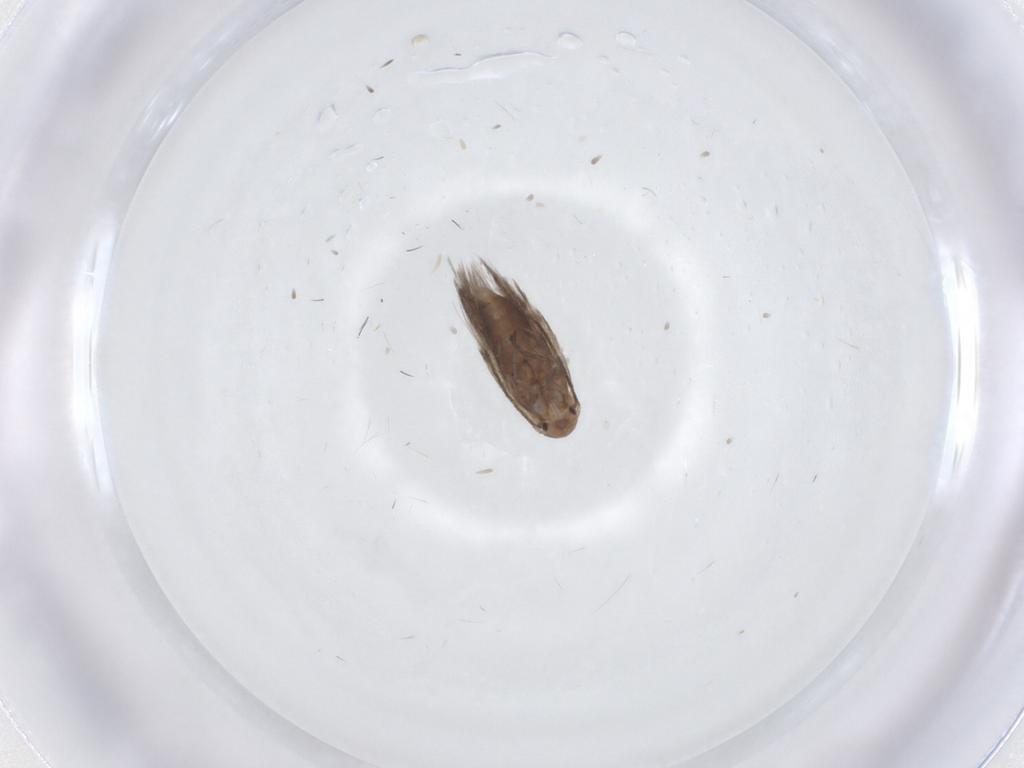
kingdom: Animalia
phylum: Arthropoda
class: Insecta
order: Lepidoptera
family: Lyonetiidae
